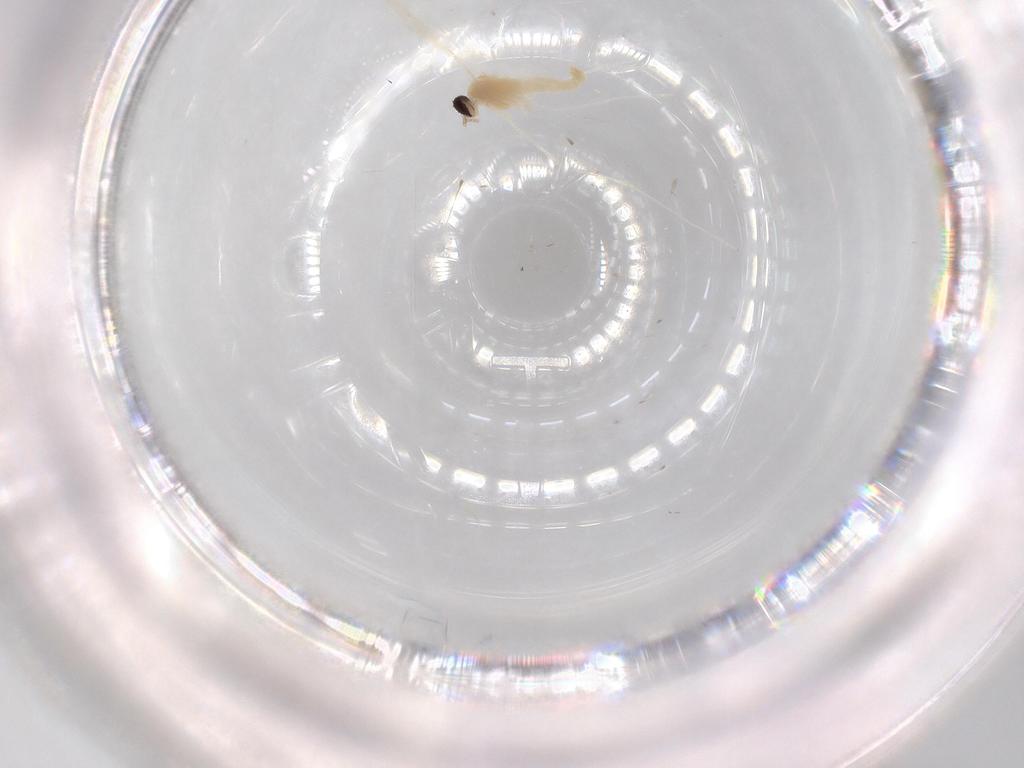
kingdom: Animalia
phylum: Arthropoda
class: Insecta
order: Diptera
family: Cecidomyiidae
